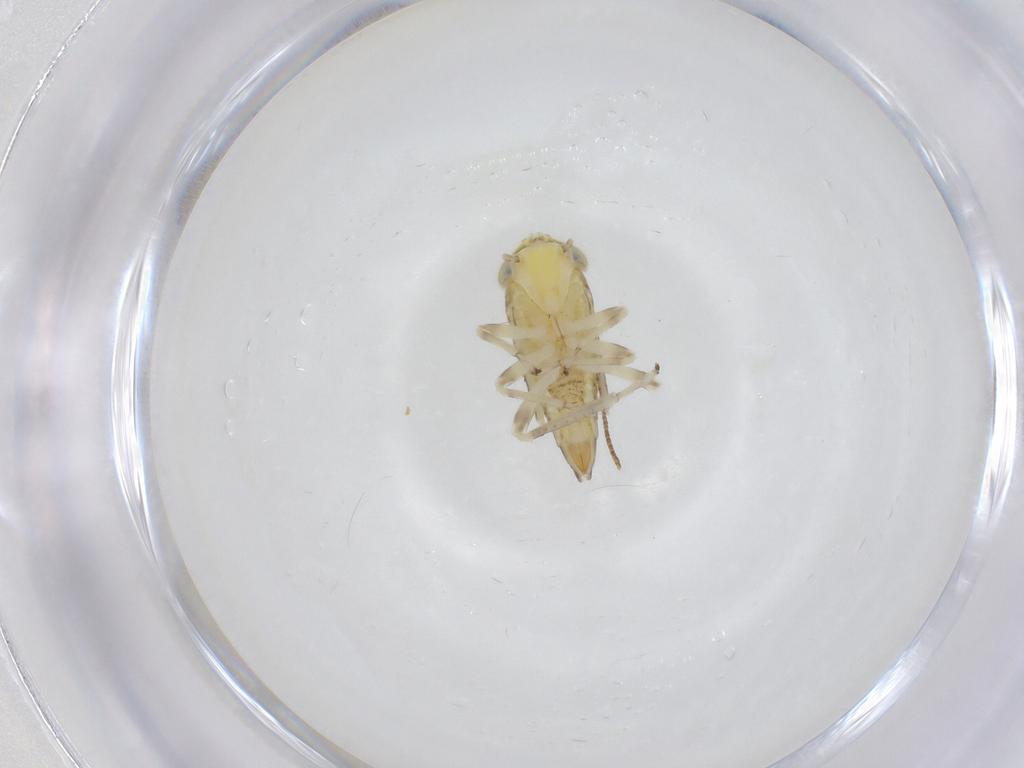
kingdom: Animalia
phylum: Arthropoda
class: Insecta
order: Hemiptera
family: Cicadellidae
